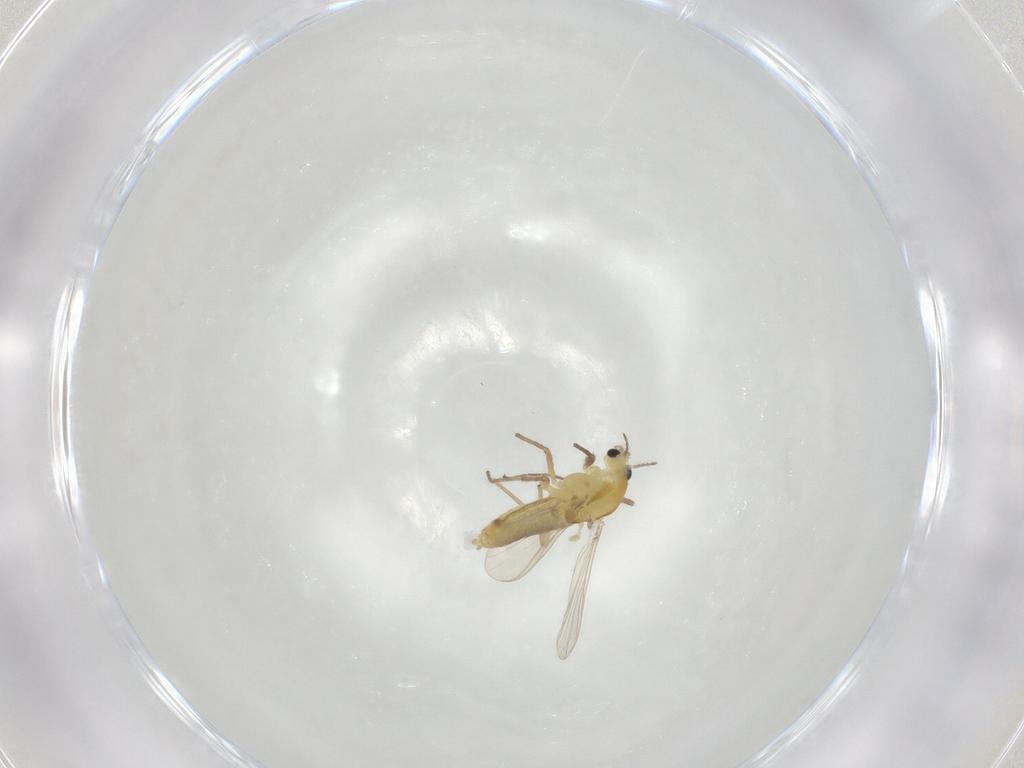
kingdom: Animalia
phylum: Arthropoda
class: Insecta
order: Diptera
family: Chironomidae
